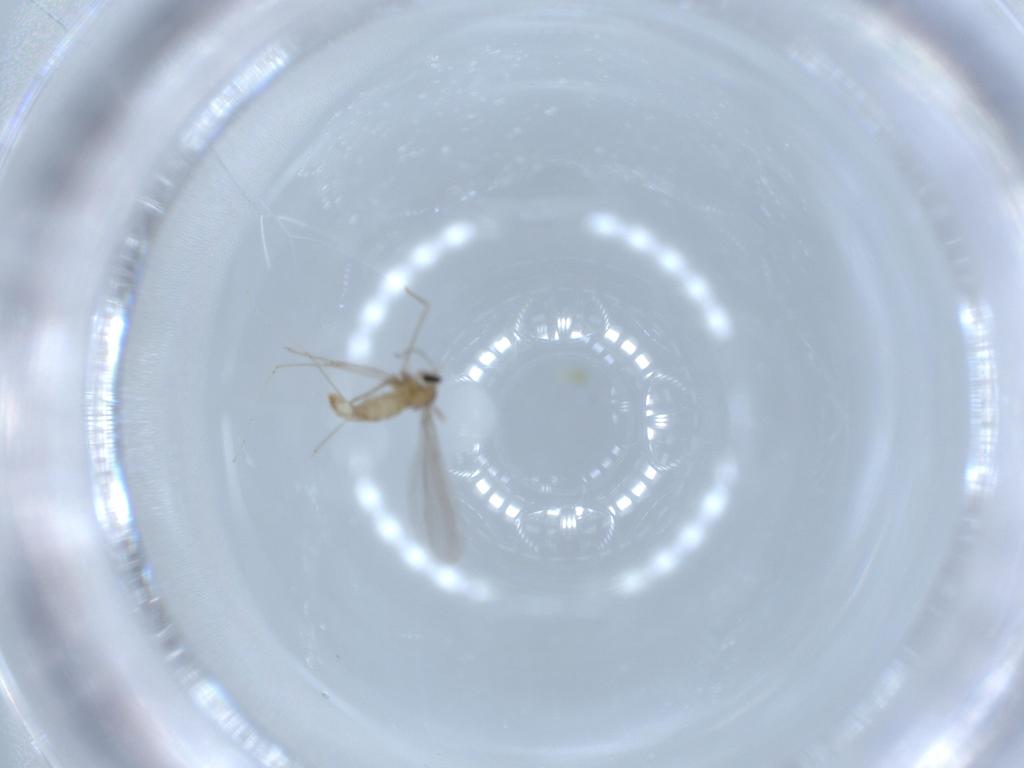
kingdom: Animalia
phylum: Arthropoda
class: Insecta
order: Diptera
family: Cecidomyiidae
